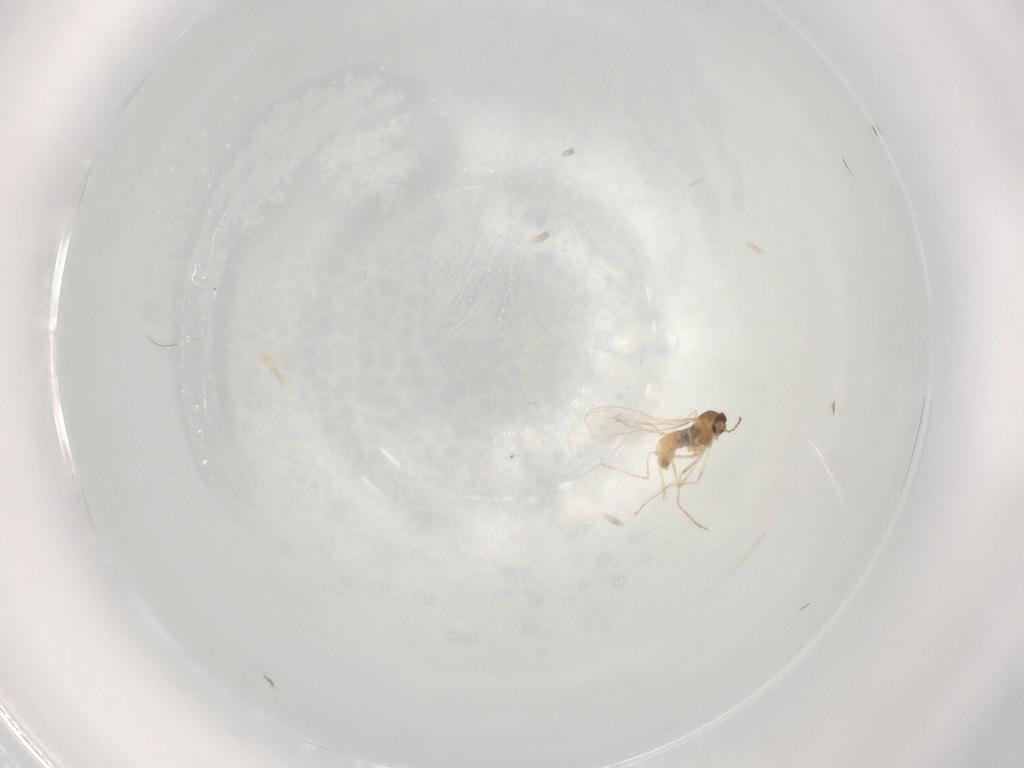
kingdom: Animalia
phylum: Arthropoda
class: Insecta
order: Diptera
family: Cecidomyiidae
